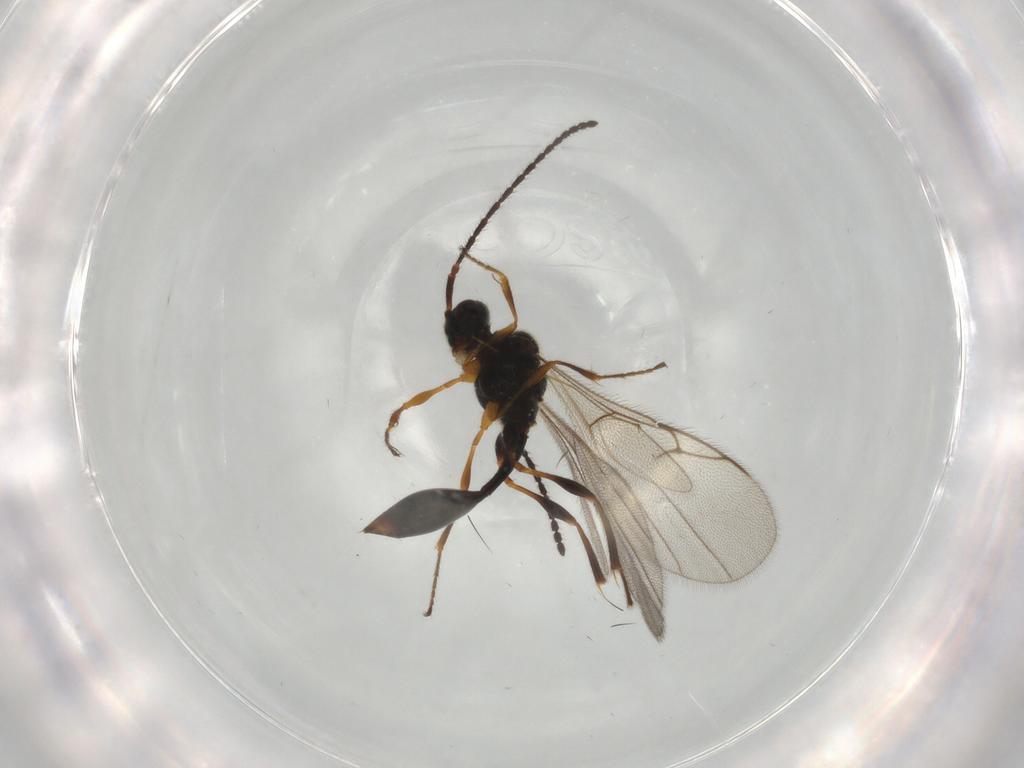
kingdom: Animalia
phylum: Arthropoda
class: Insecta
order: Hymenoptera
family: Diapriidae
